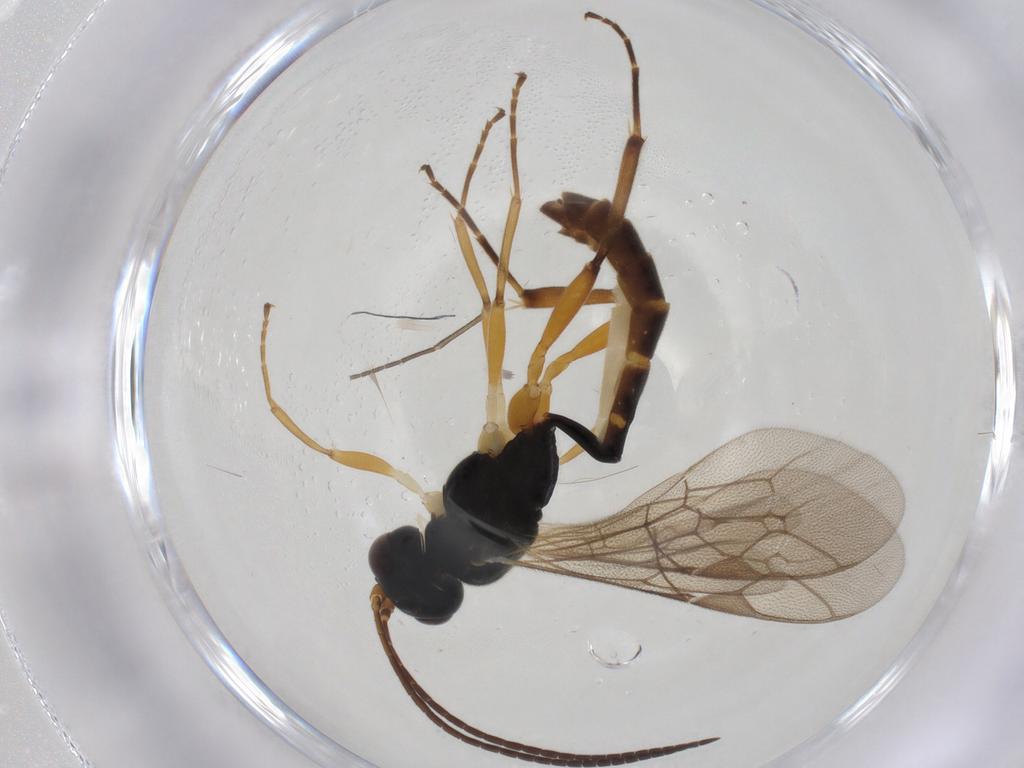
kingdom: Animalia
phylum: Arthropoda
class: Insecta
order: Hymenoptera
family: Ichneumonidae
